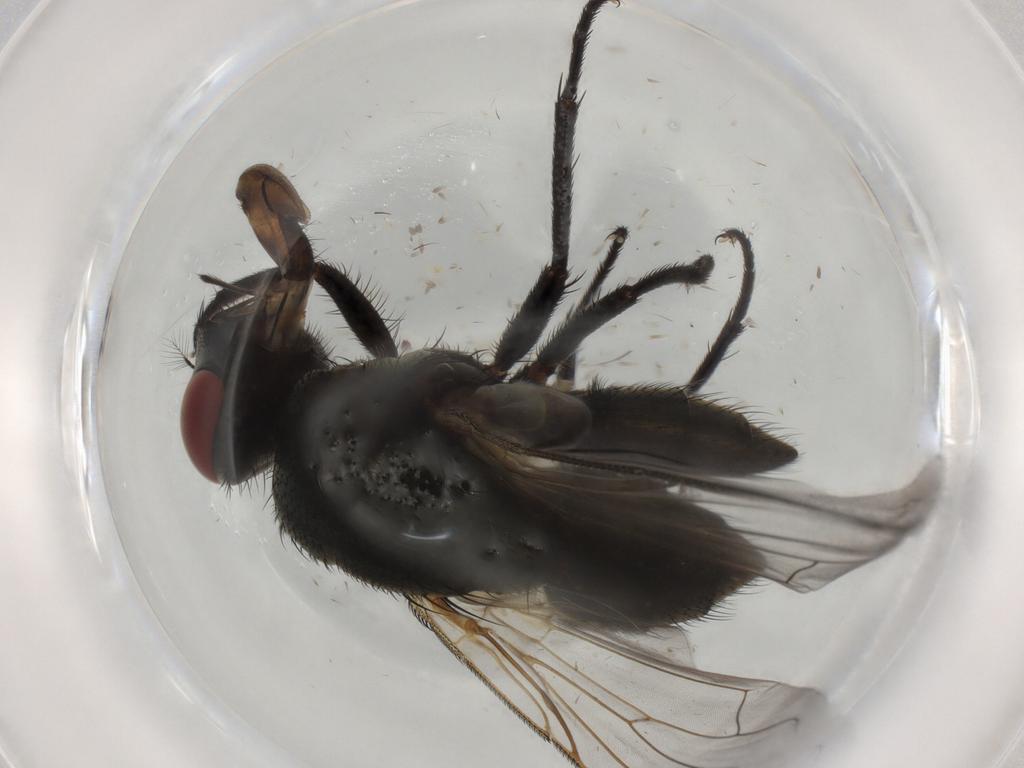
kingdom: Animalia
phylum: Arthropoda
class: Insecta
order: Diptera
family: Muscidae
